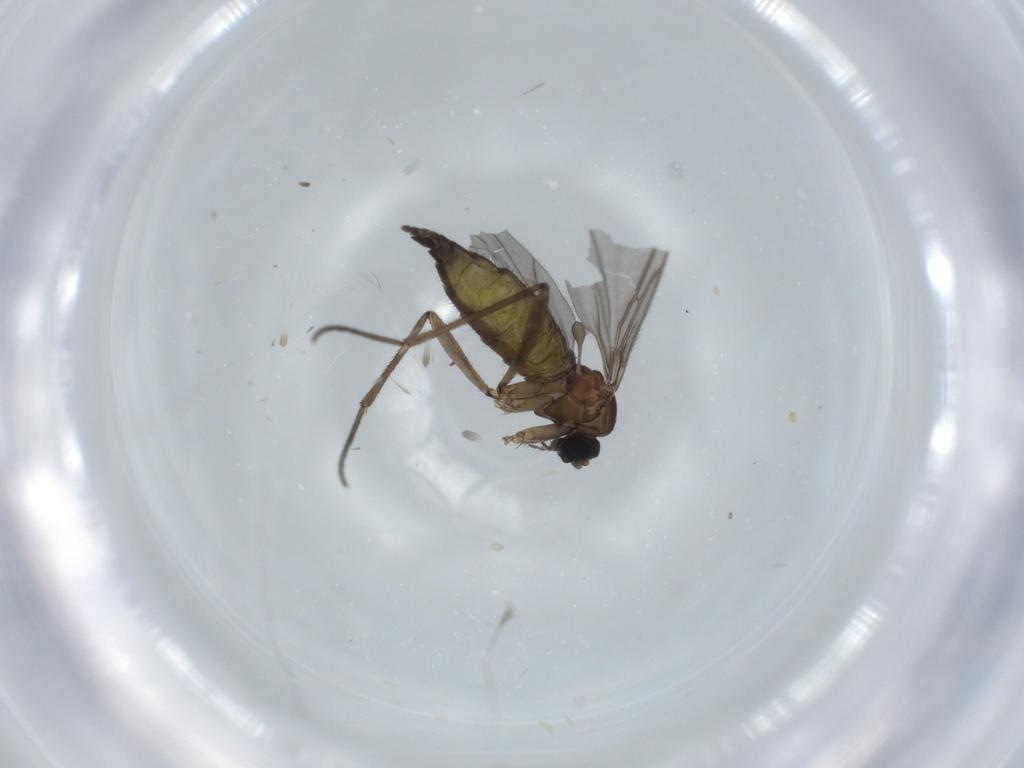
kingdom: Animalia
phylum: Arthropoda
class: Insecta
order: Diptera
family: Sciaridae
